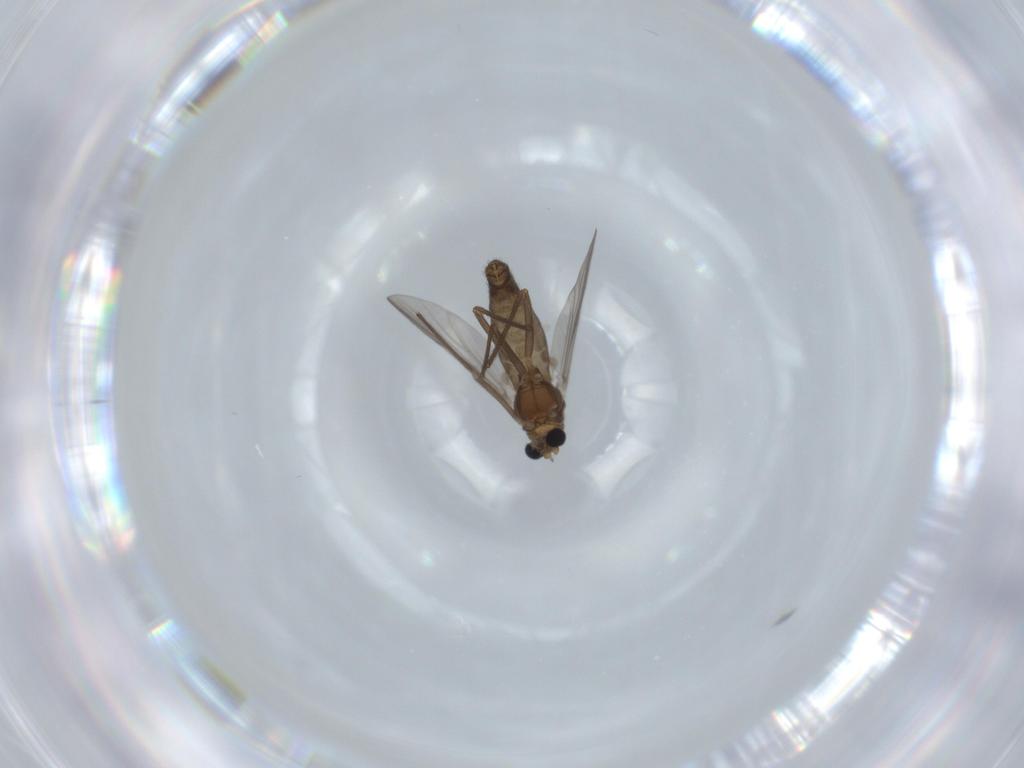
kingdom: Animalia
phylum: Arthropoda
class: Insecta
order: Diptera
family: Chironomidae
